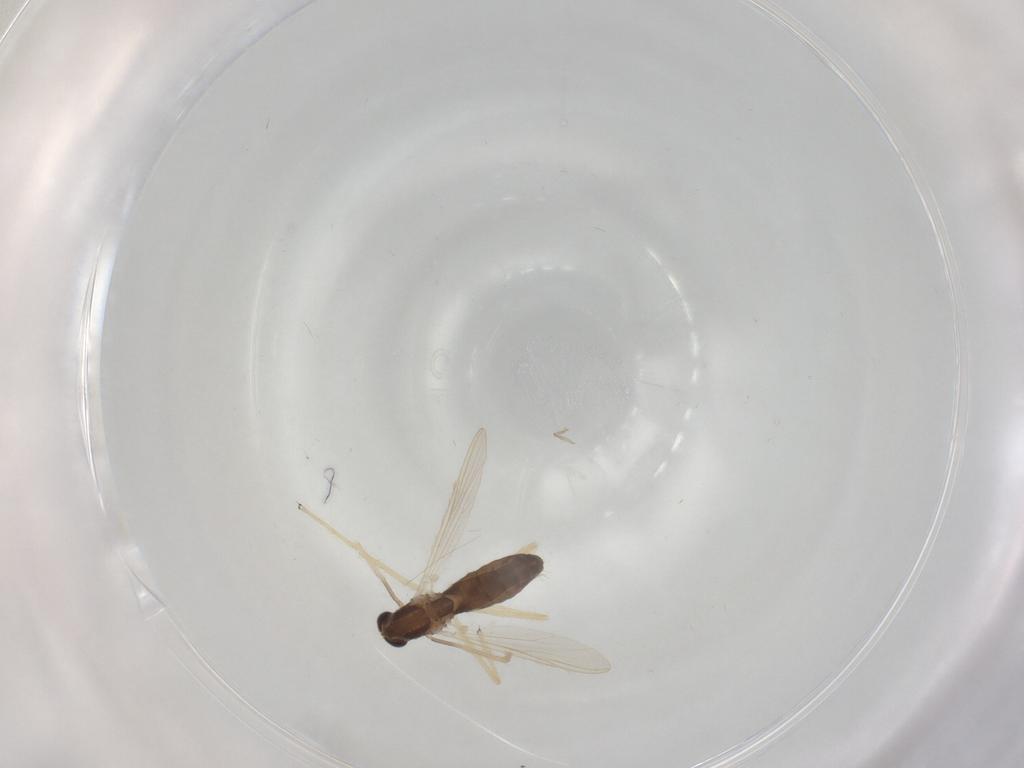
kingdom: Animalia
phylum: Arthropoda
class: Insecta
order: Diptera
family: Chironomidae
